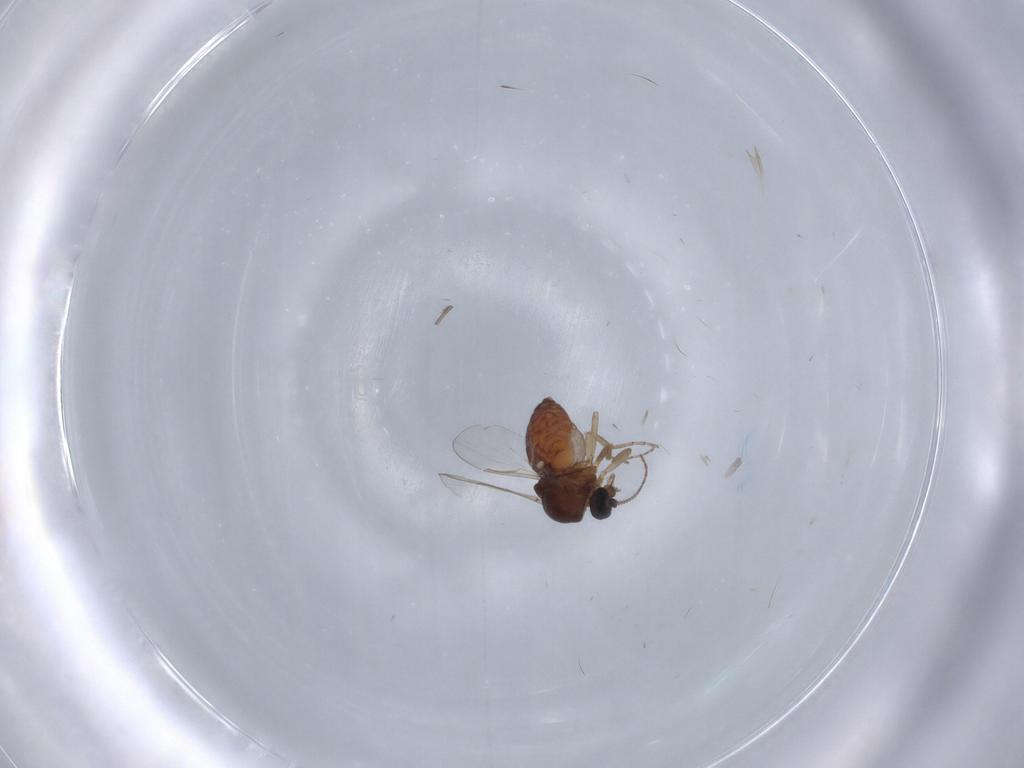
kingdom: Animalia
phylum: Arthropoda
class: Insecta
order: Diptera
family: Ceratopogonidae
